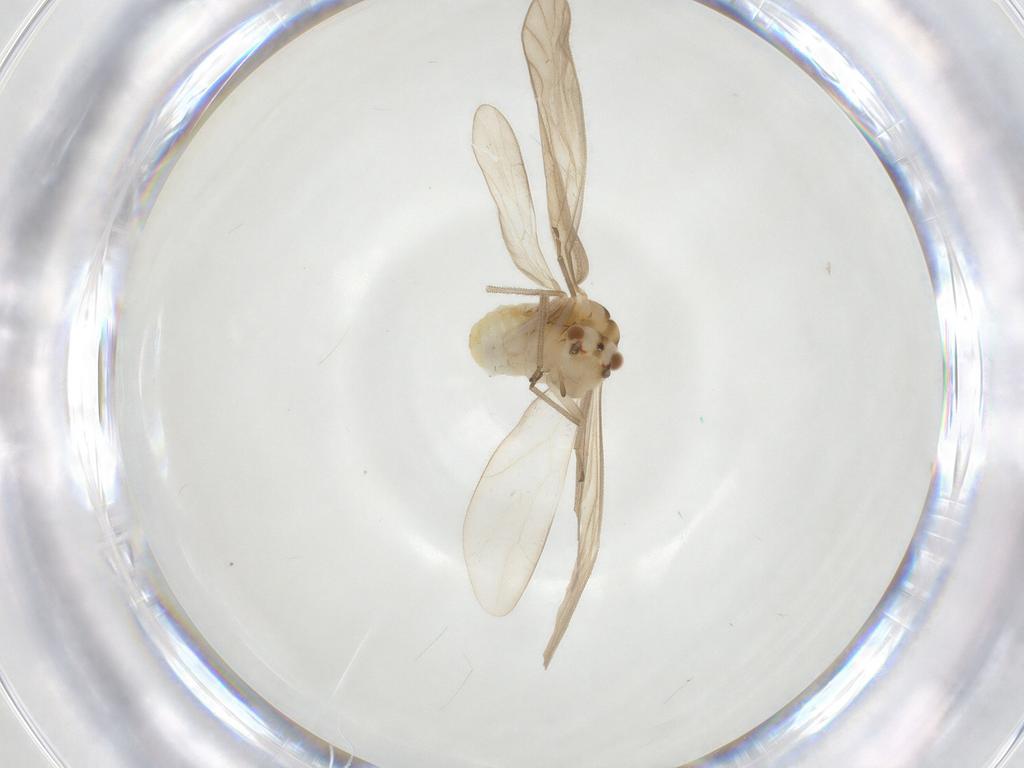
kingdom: Animalia
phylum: Arthropoda
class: Insecta
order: Psocodea
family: Caeciliusidae
